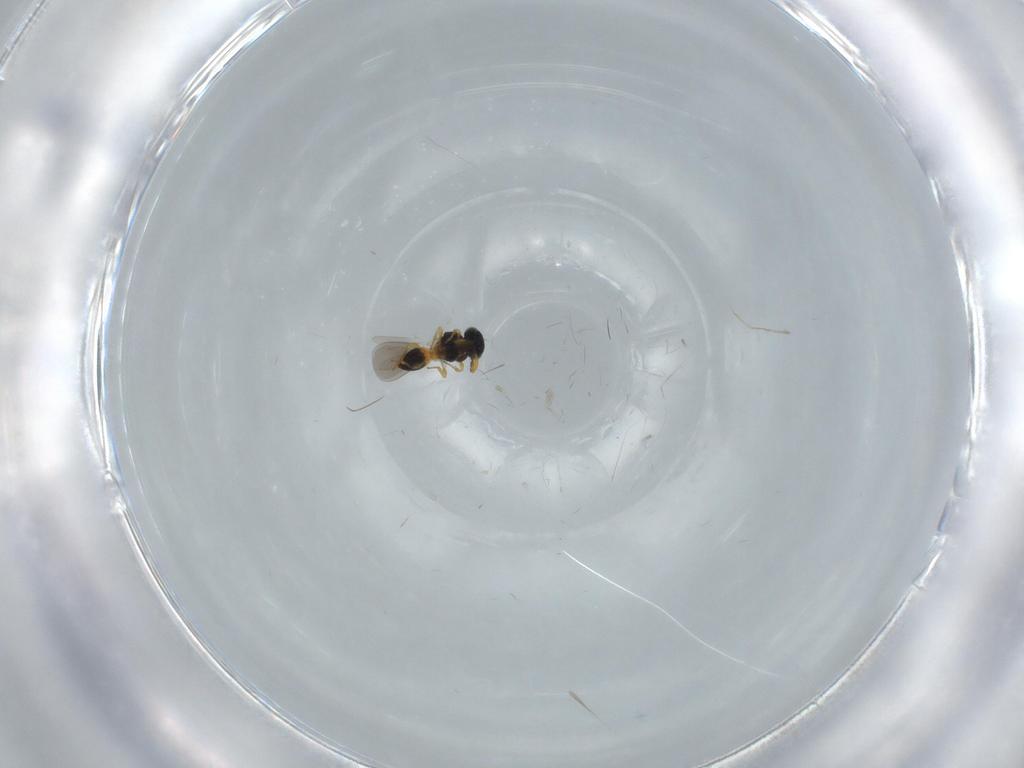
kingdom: Animalia
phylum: Arthropoda
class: Insecta
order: Hymenoptera
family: Platygastridae
